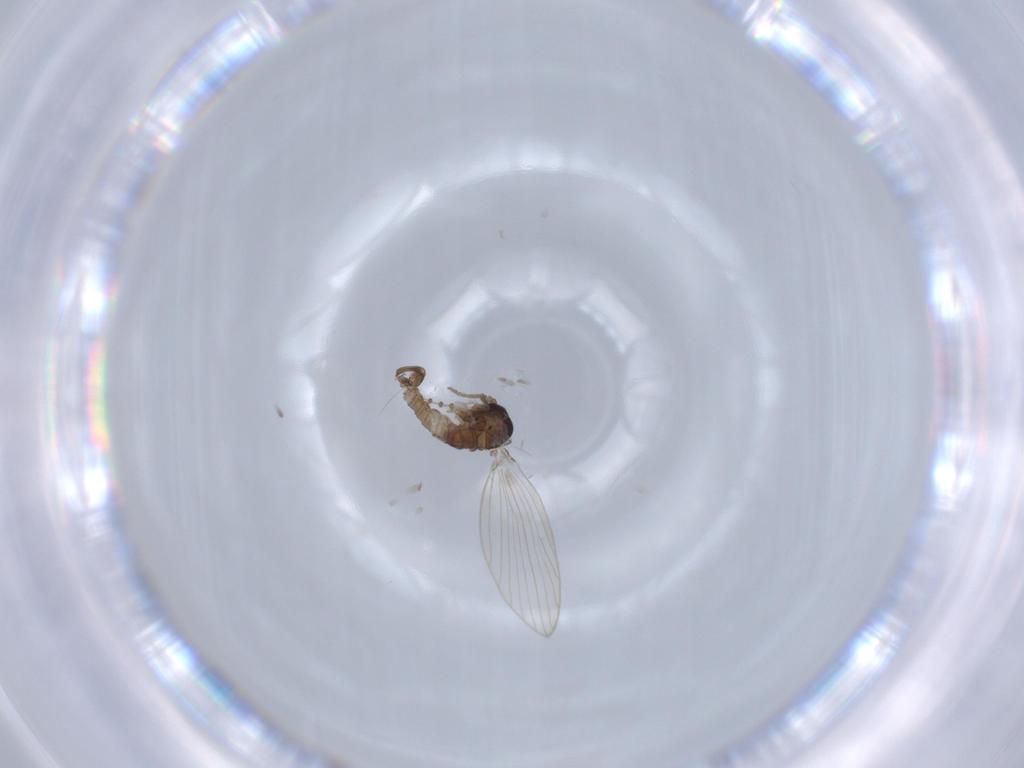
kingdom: Animalia
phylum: Arthropoda
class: Insecta
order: Diptera
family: Psychodidae
